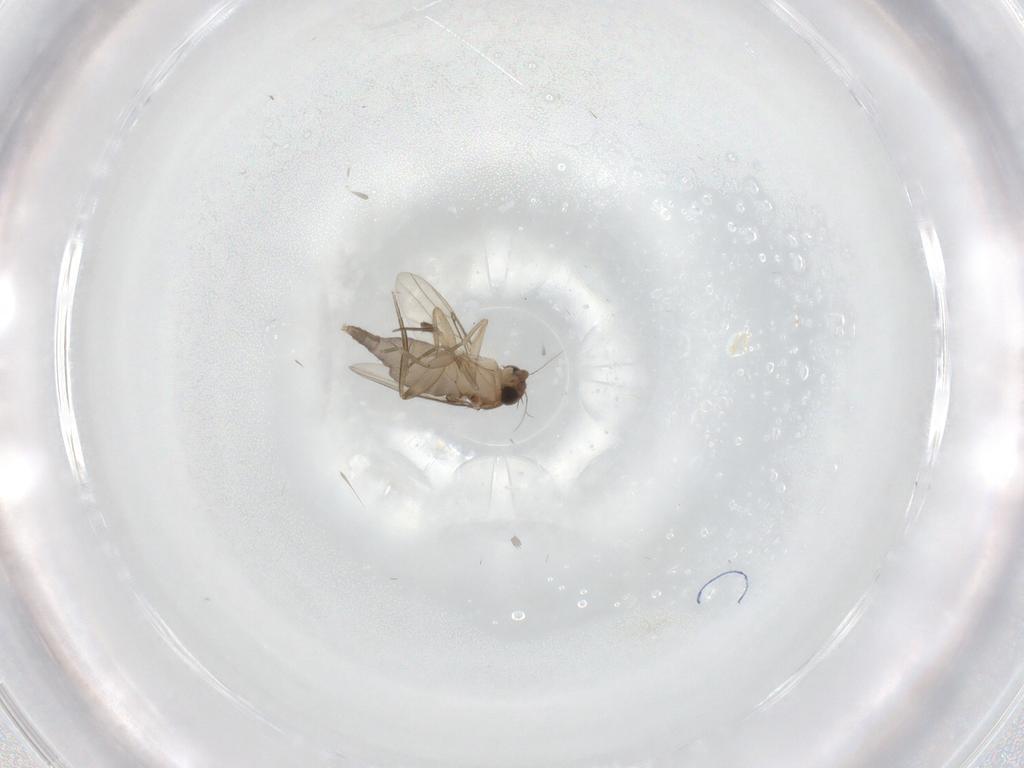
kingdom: Animalia
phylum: Arthropoda
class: Insecta
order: Diptera
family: Phoridae
